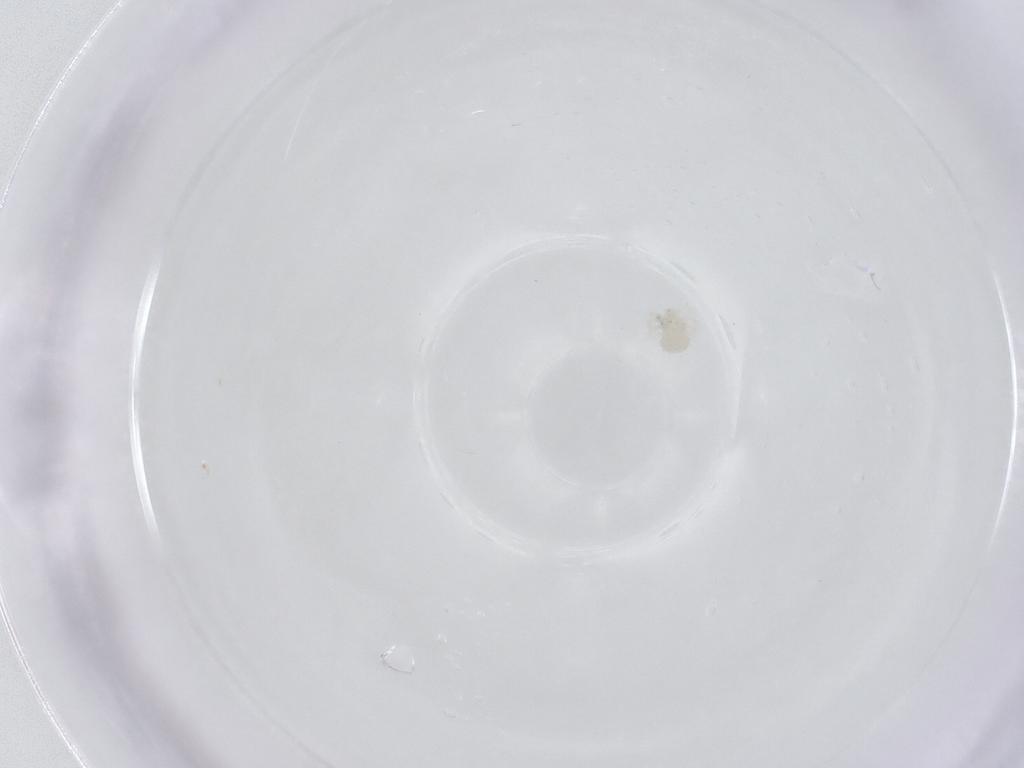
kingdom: Animalia
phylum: Arthropoda
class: Arachnida
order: Trombidiformes
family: Anystidae
